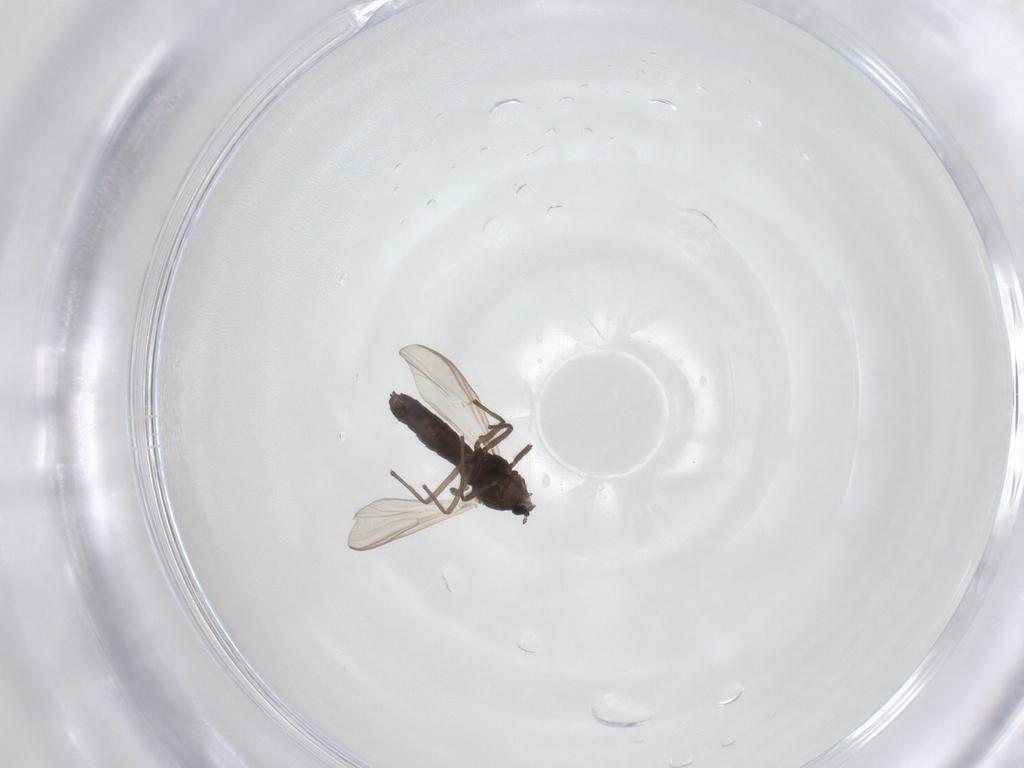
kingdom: Animalia
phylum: Arthropoda
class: Insecta
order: Diptera
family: Chironomidae
